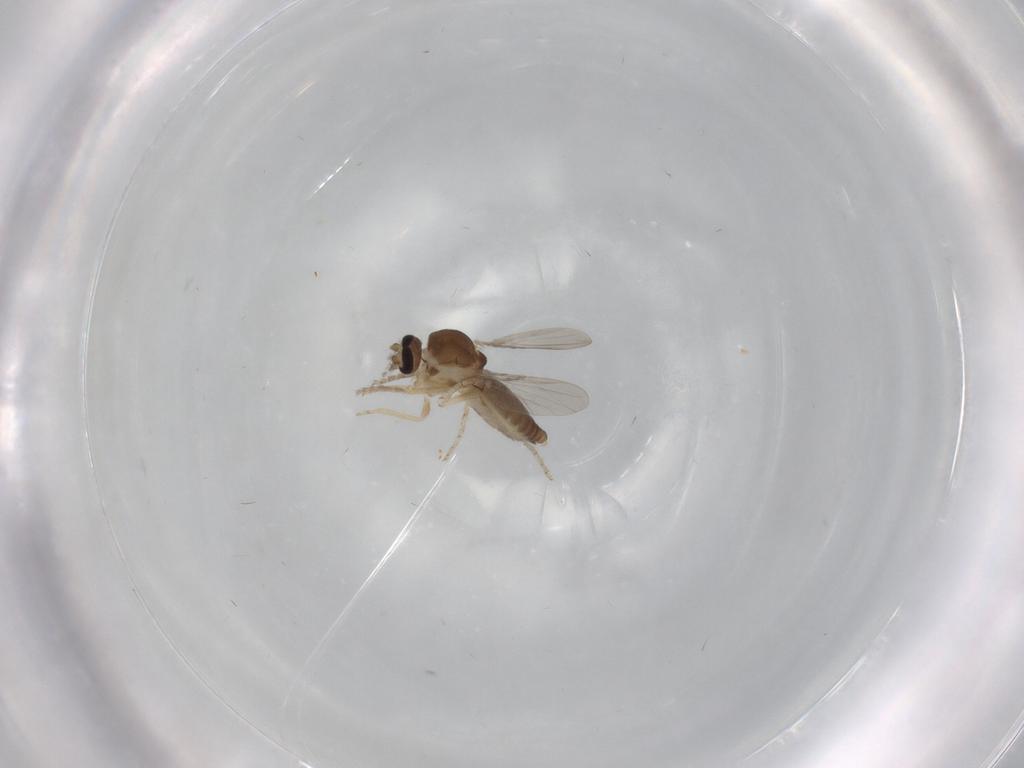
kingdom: Animalia
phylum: Arthropoda
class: Insecta
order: Diptera
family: Ceratopogonidae
